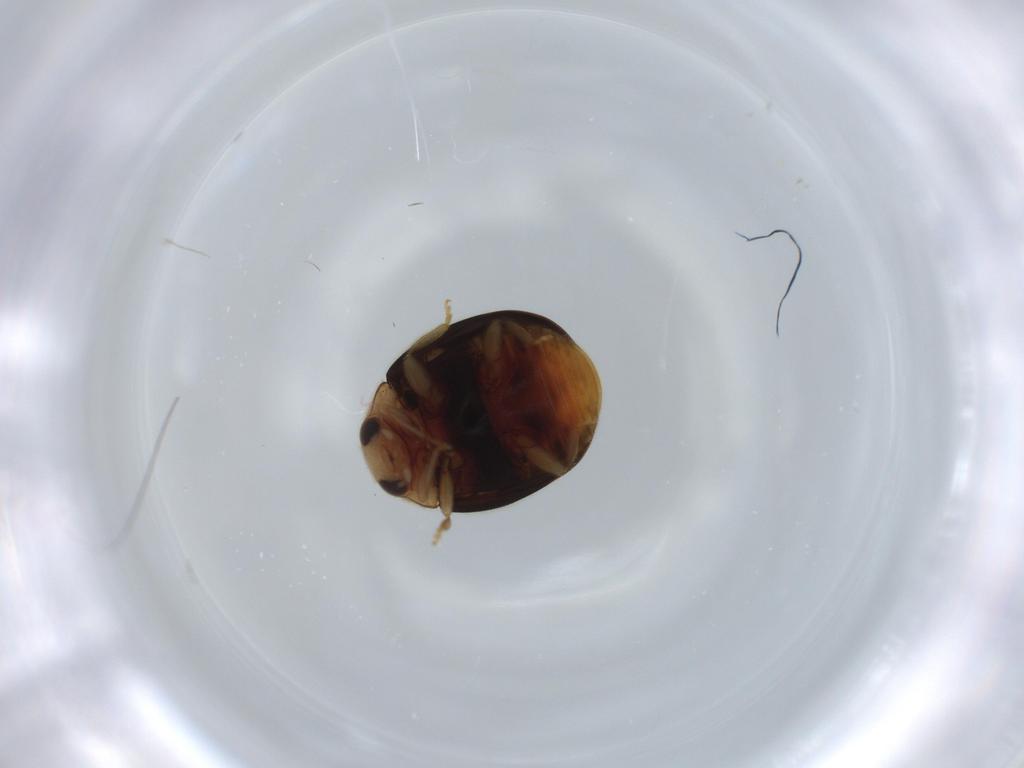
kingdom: Animalia
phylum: Arthropoda
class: Insecta
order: Coleoptera
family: Coccinellidae
